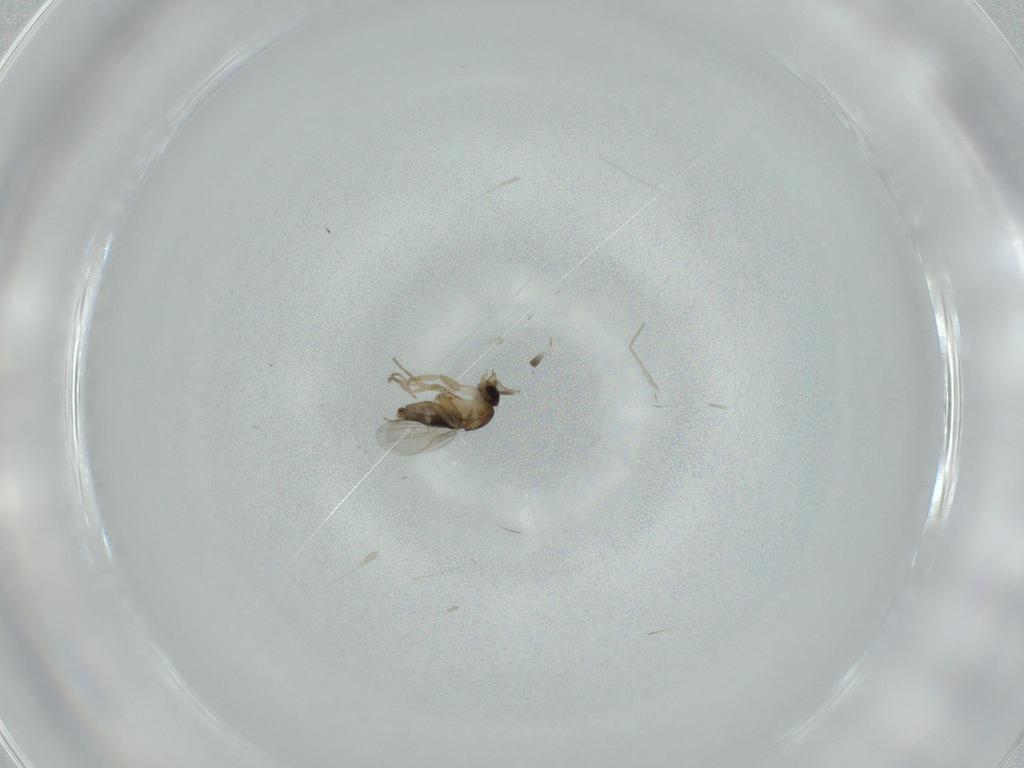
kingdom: Animalia
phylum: Arthropoda
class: Insecta
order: Diptera
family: Phoridae
